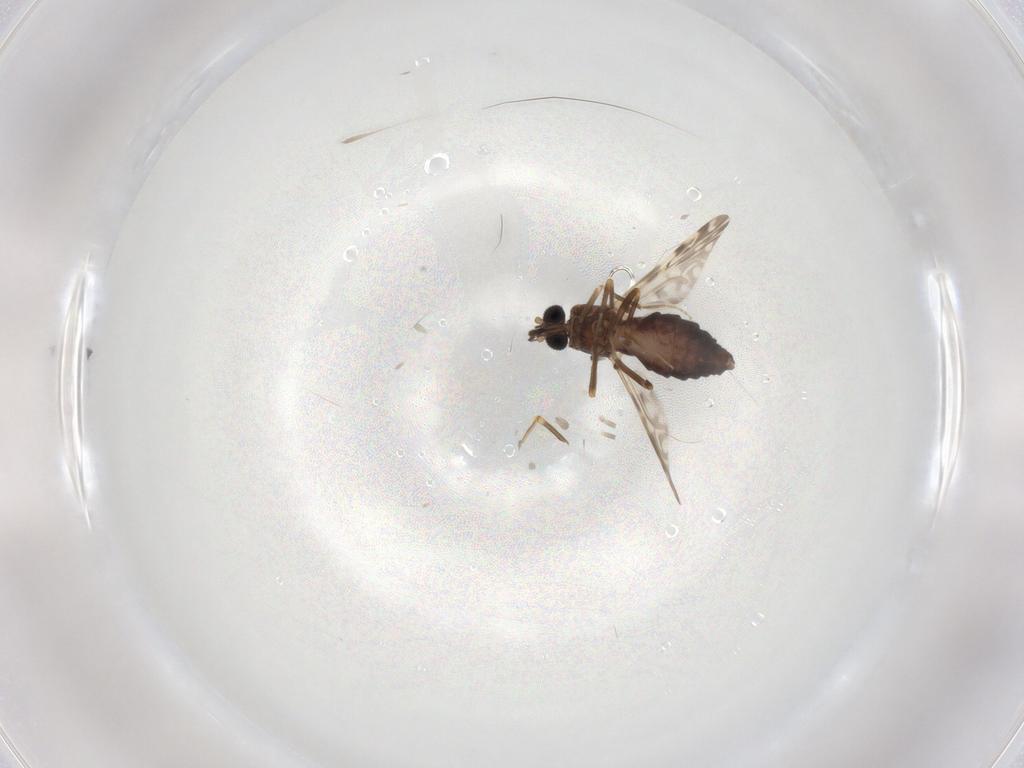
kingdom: Animalia
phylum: Arthropoda
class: Insecta
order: Diptera
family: Ceratopogonidae
